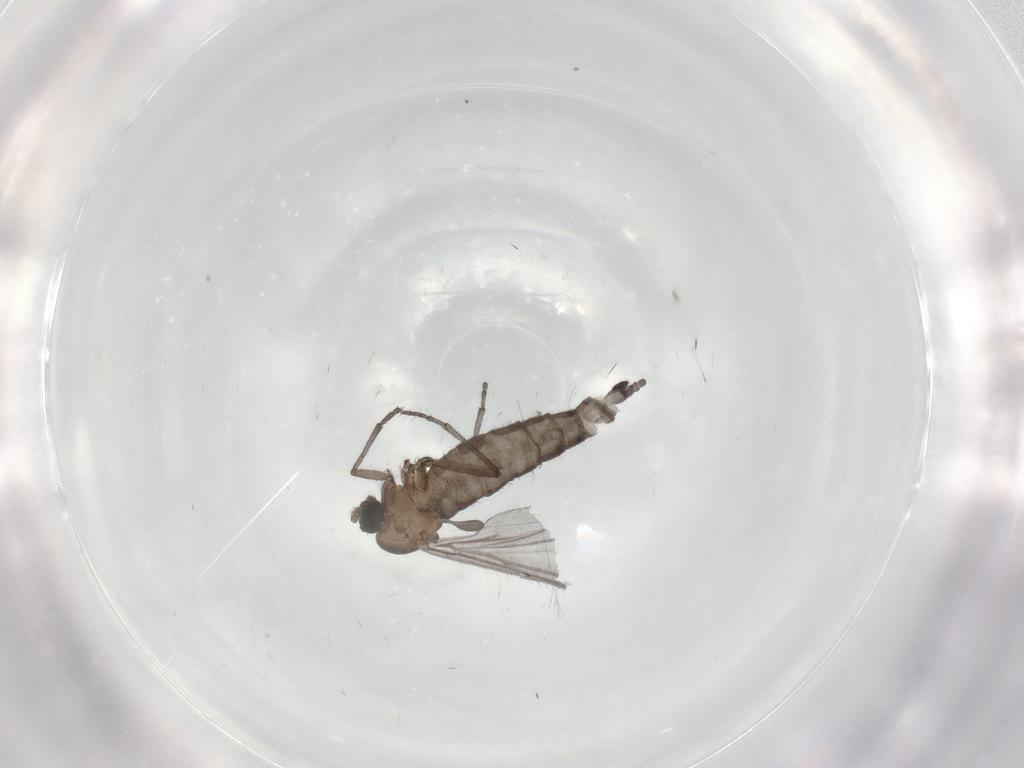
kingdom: Animalia
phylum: Arthropoda
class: Insecta
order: Diptera
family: Sciaridae
